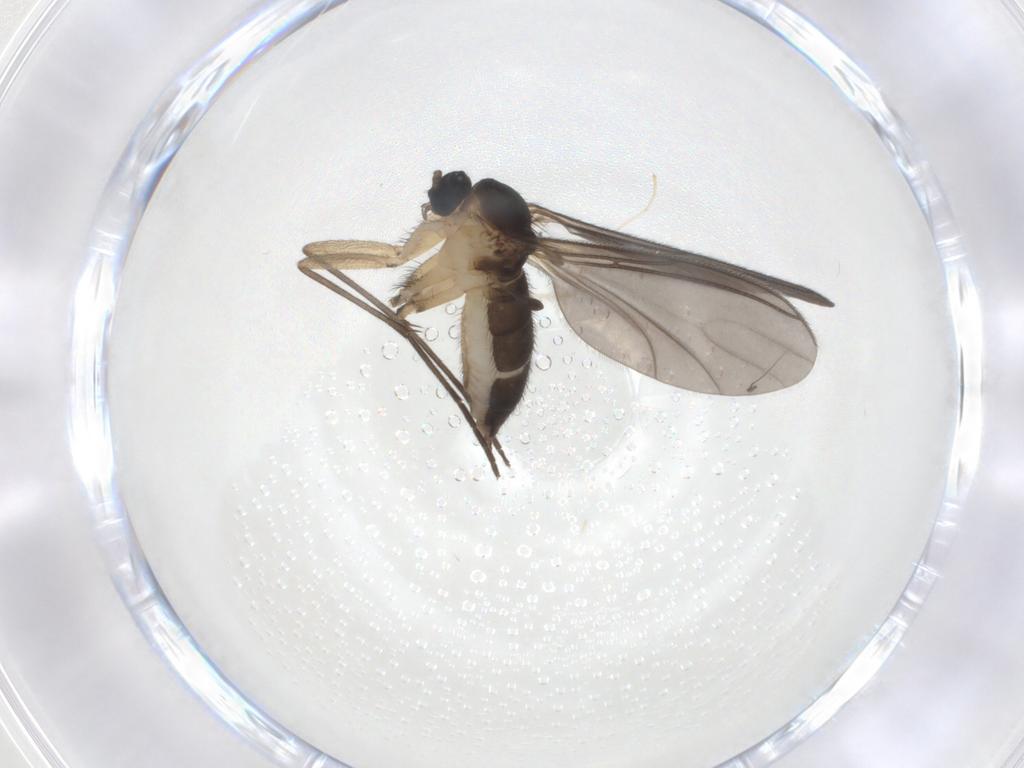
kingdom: Animalia
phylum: Arthropoda
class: Insecta
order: Diptera
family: Sciaridae
